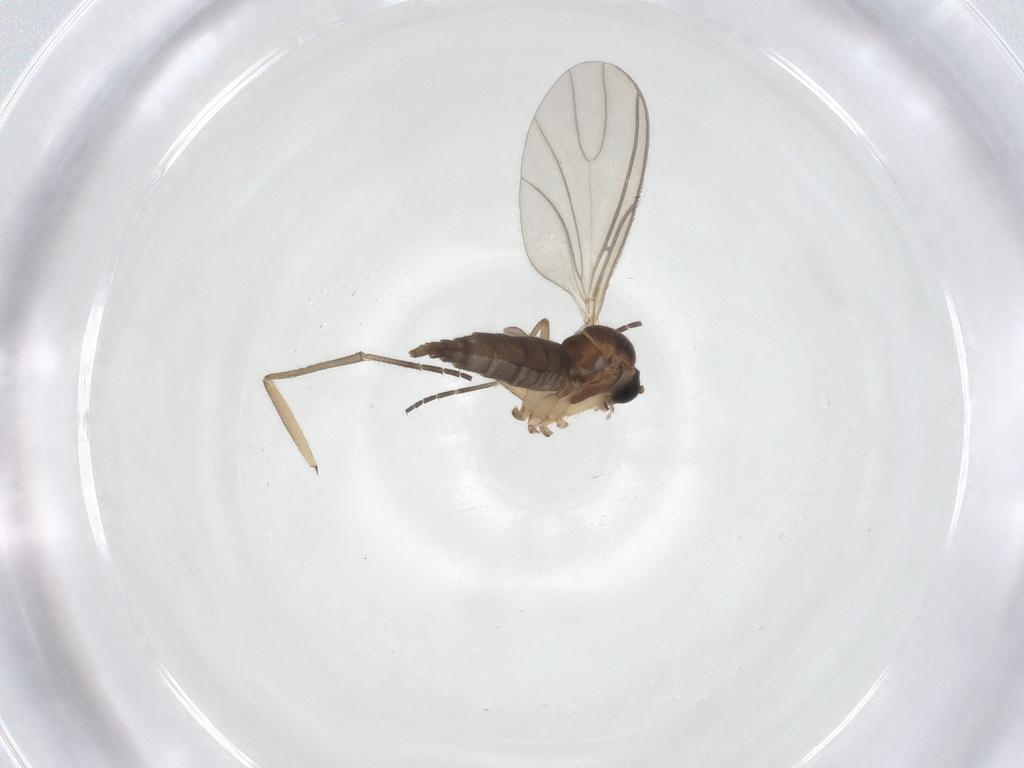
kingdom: Animalia
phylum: Arthropoda
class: Insecta
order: Diptera
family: Sciaridae
